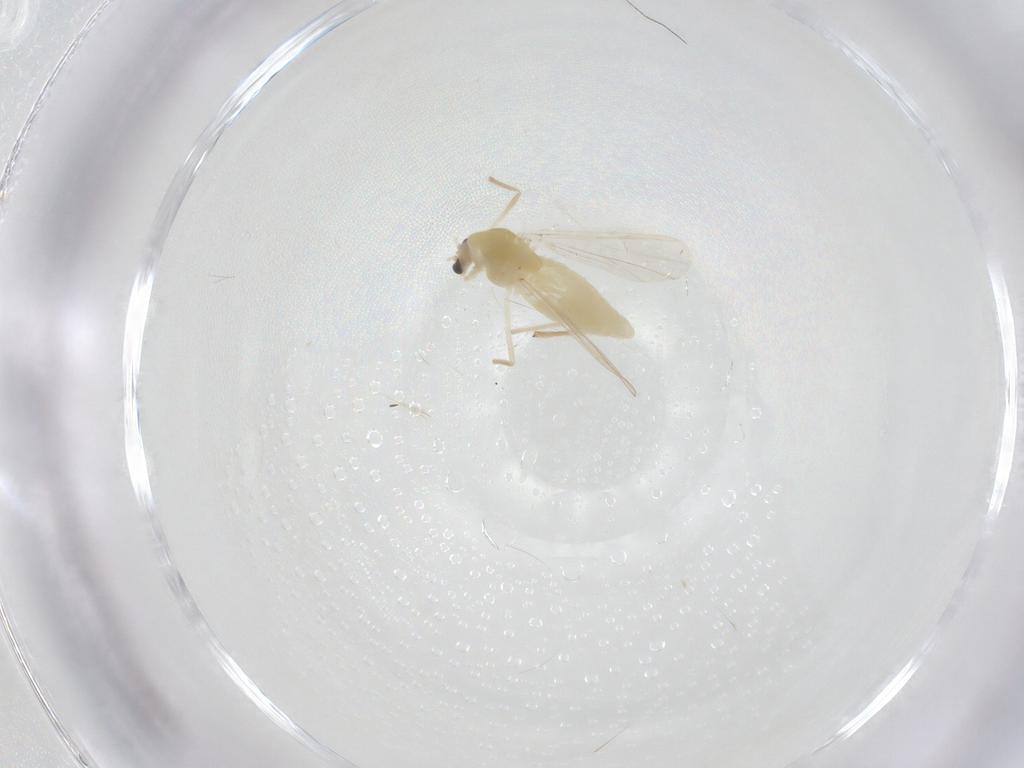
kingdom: Animalia
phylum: Arthropoda
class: Insecta
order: Diptera
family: Chironomidae
